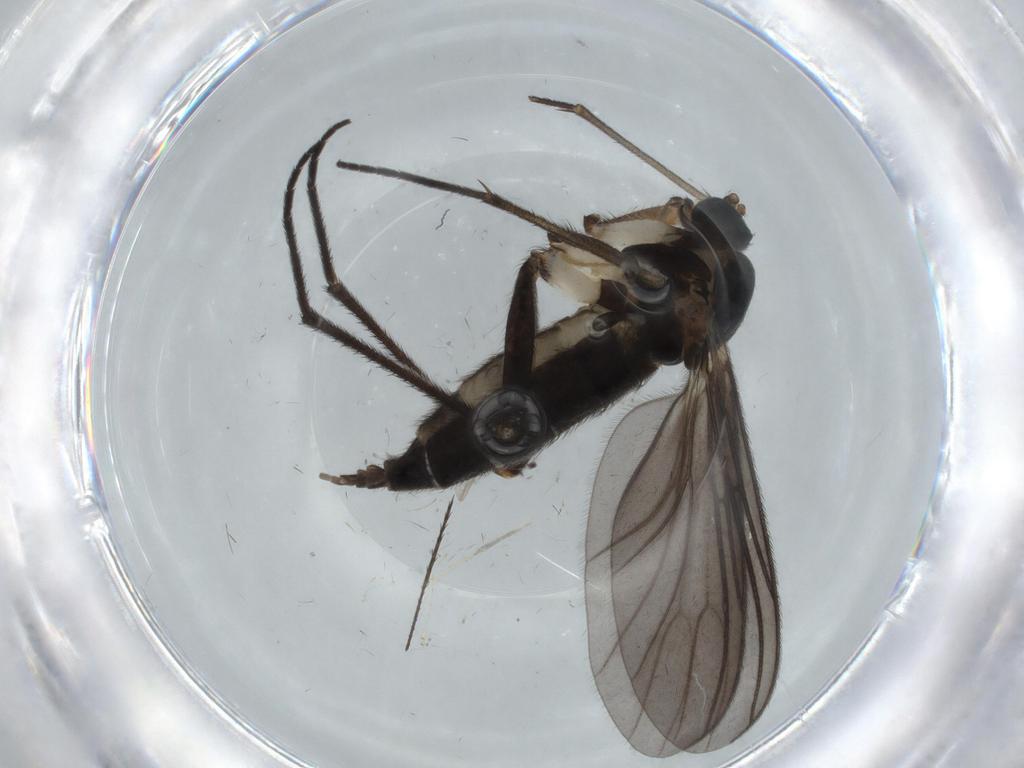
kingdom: Animalia
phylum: Arthropoda
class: Insecta
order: Diptera
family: Sciaridae
